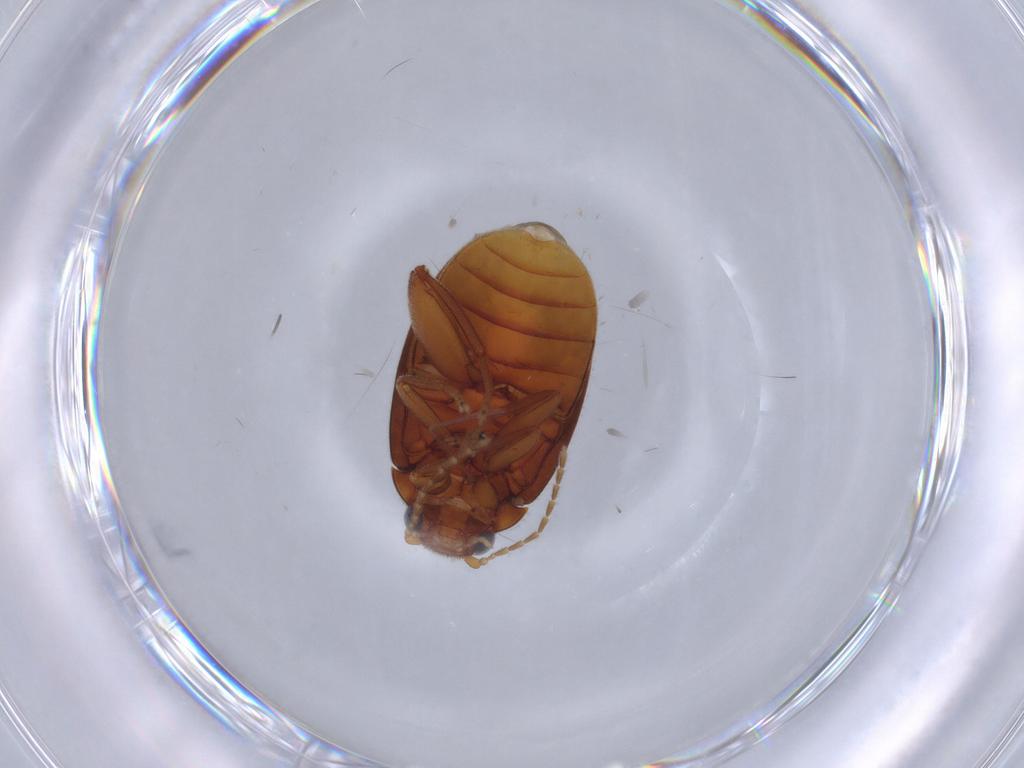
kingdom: Animalia
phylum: Arthropoda
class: Insecta
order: Coleoptera
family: Scirtidae
